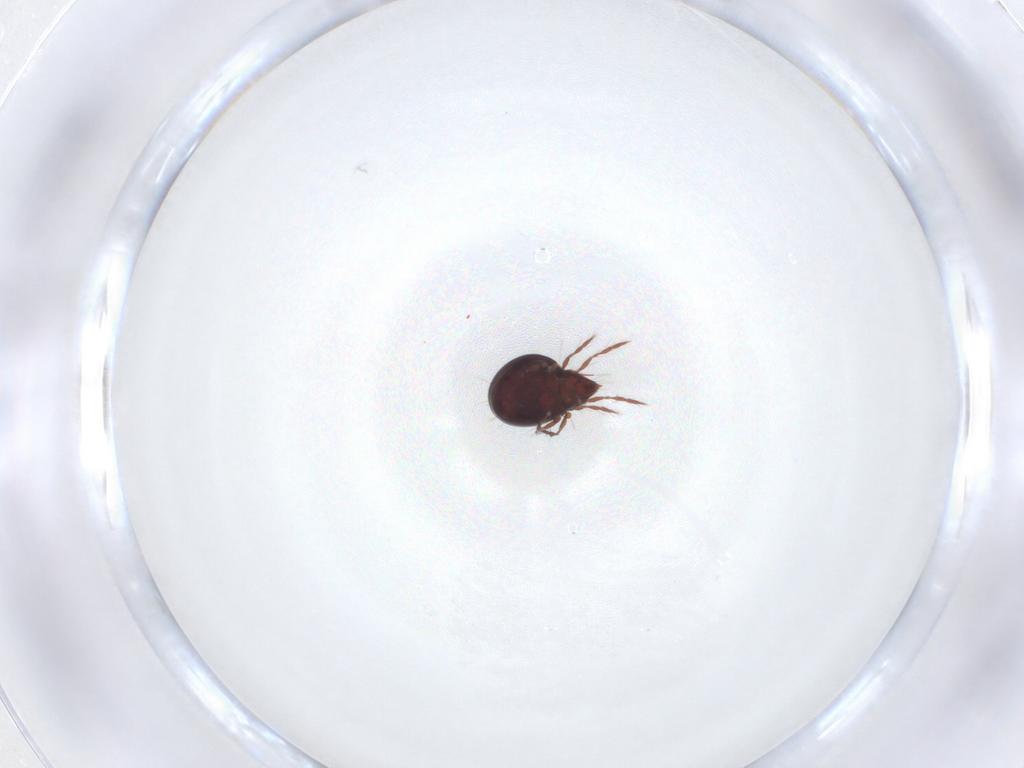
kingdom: Animalia
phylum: Arthropoda
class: Arachnida
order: Sarcoptiformes
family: Ceratoppiidae
